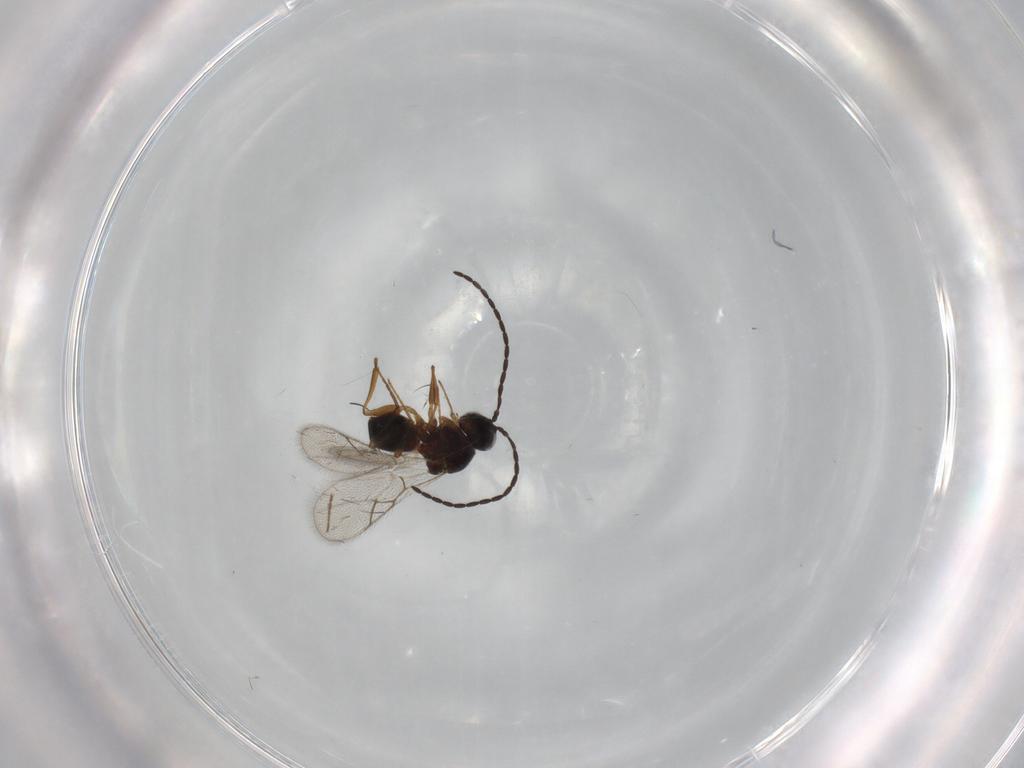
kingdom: Animalia
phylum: Arthropoda
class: Insecta
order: Hymenoptera
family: Figitidae
